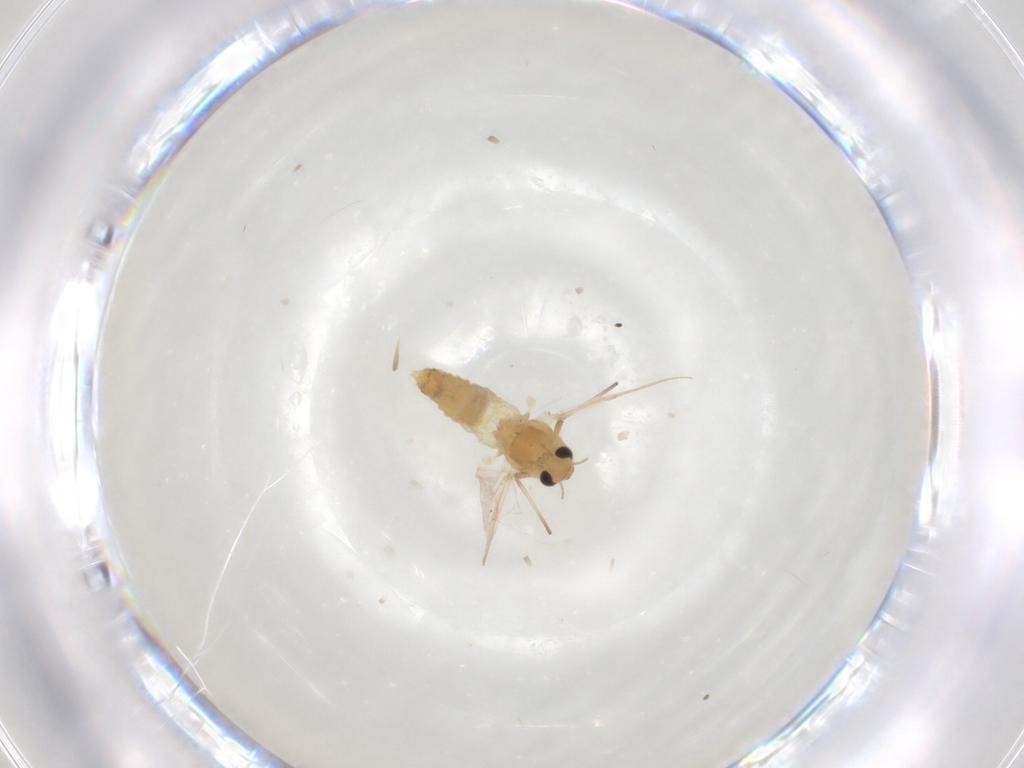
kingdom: Animalia
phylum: Arthropoda
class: Insecta
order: Diptera
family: Chironomidae
